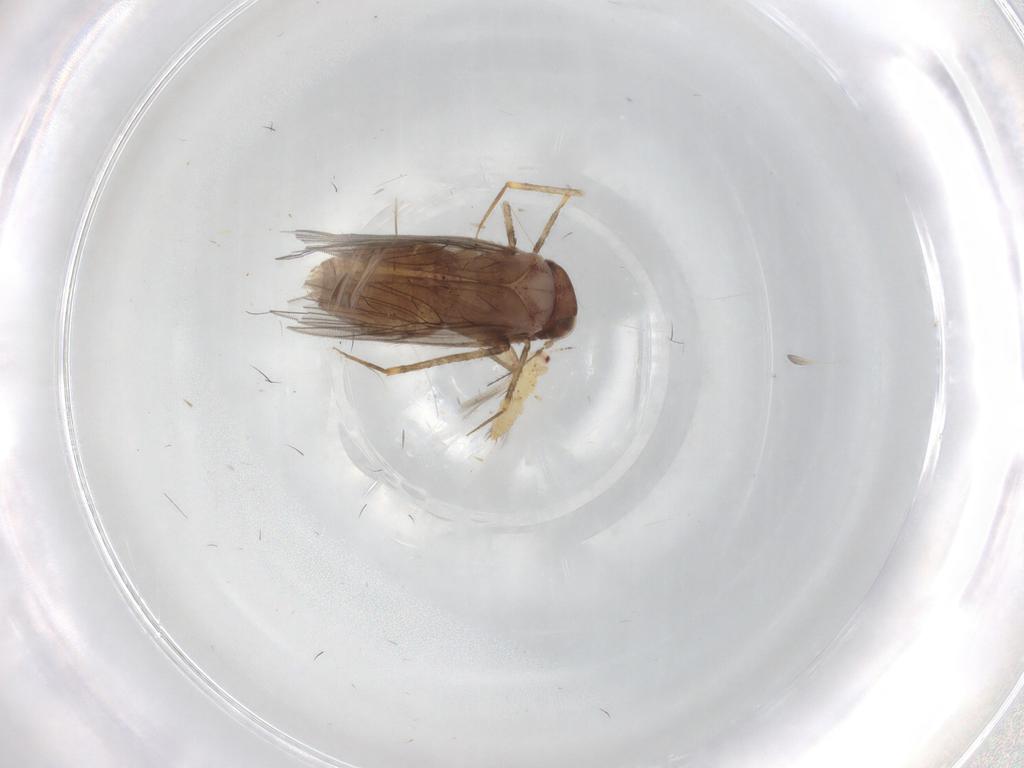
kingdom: Animalia
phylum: Arthropoda
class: Insecta
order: Psocodea
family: Lepidopsocidae
